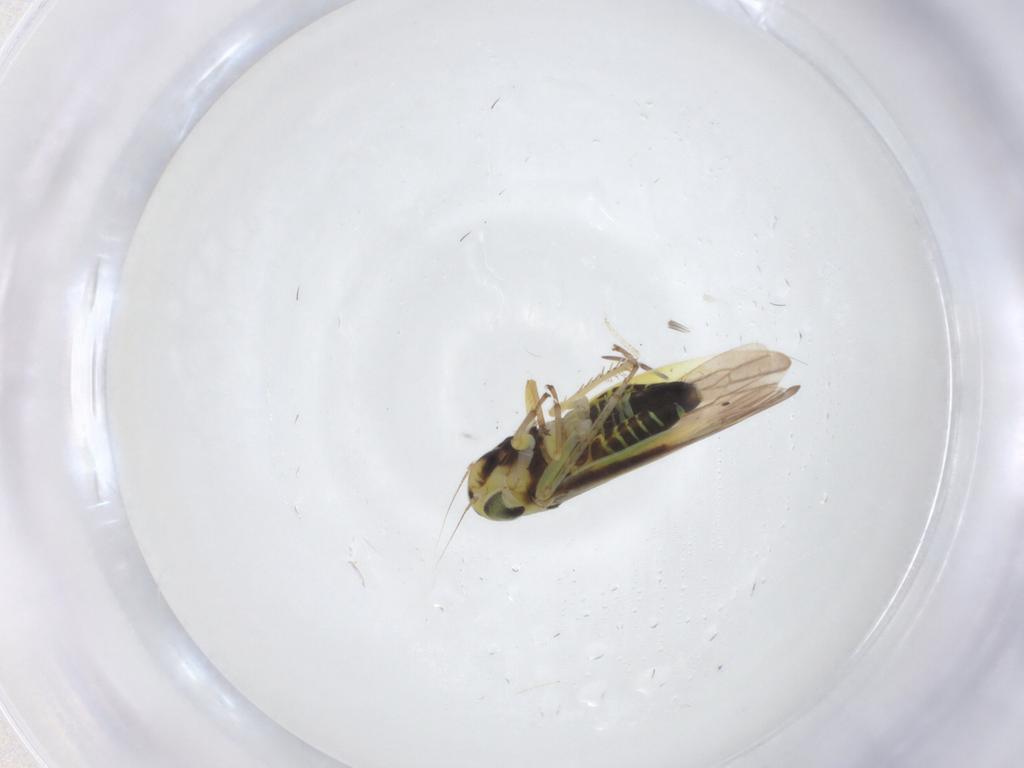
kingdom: Animalia
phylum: Arthropoda
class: Insecta
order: Hemiptera
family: Cicadellidae
